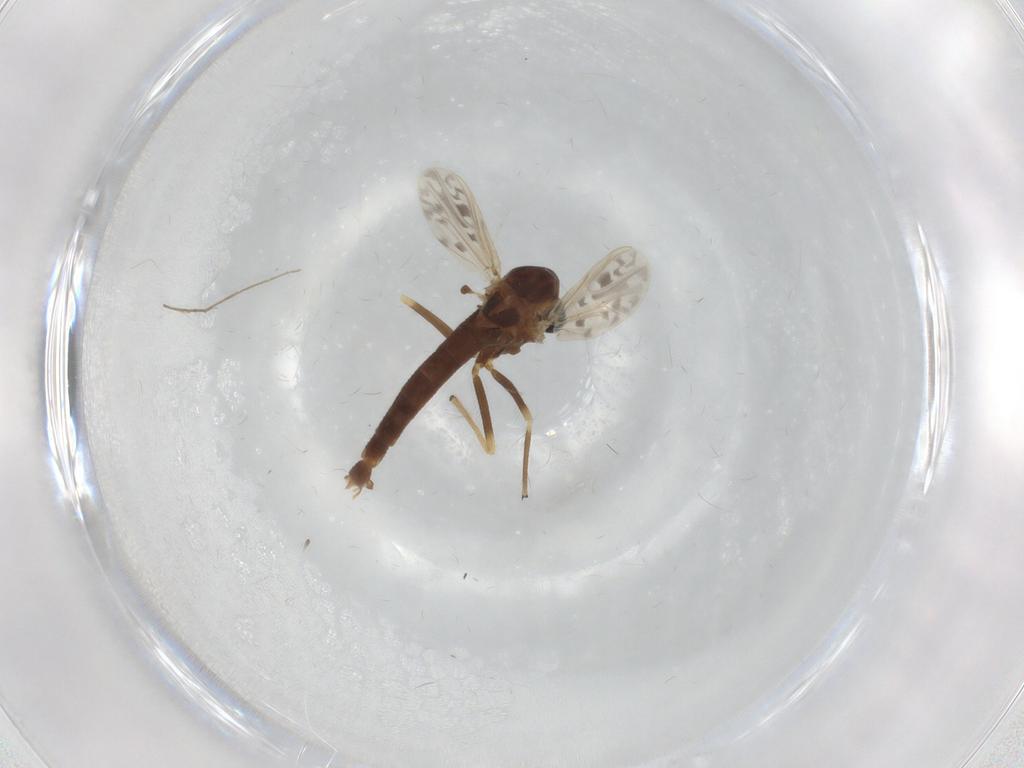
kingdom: Animalia
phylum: Arthropoda
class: Insecta
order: Diptera
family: Chironomidae
